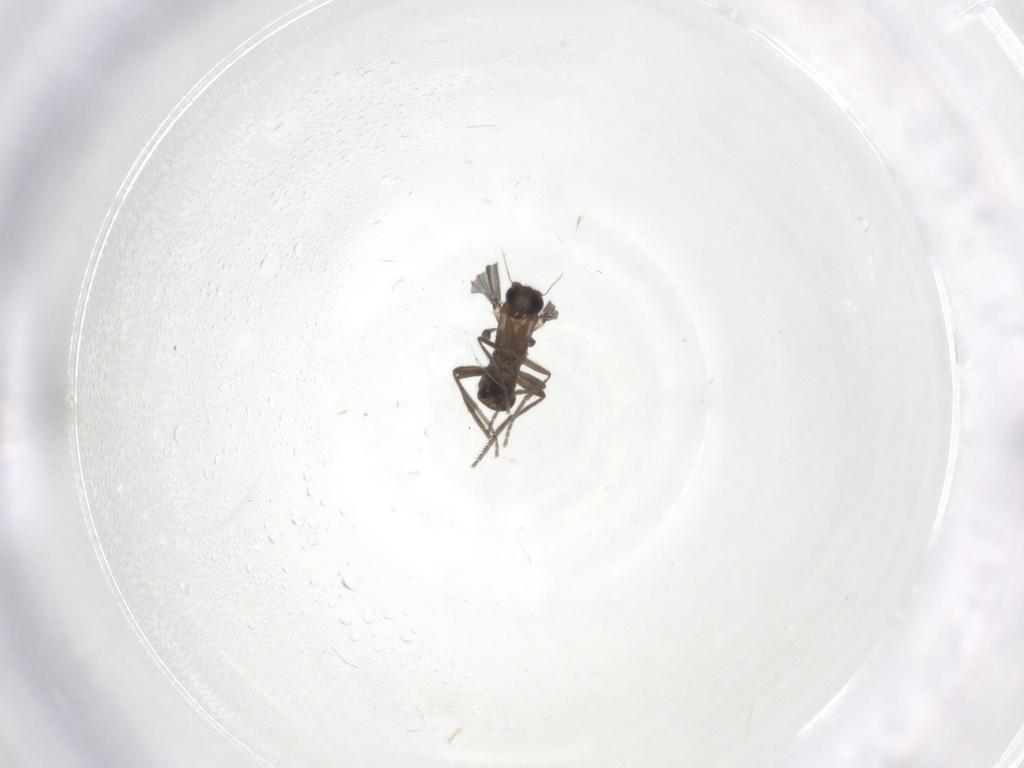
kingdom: Animalia
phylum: Arthropoda
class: Insecta
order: Diptera
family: Phoridae
